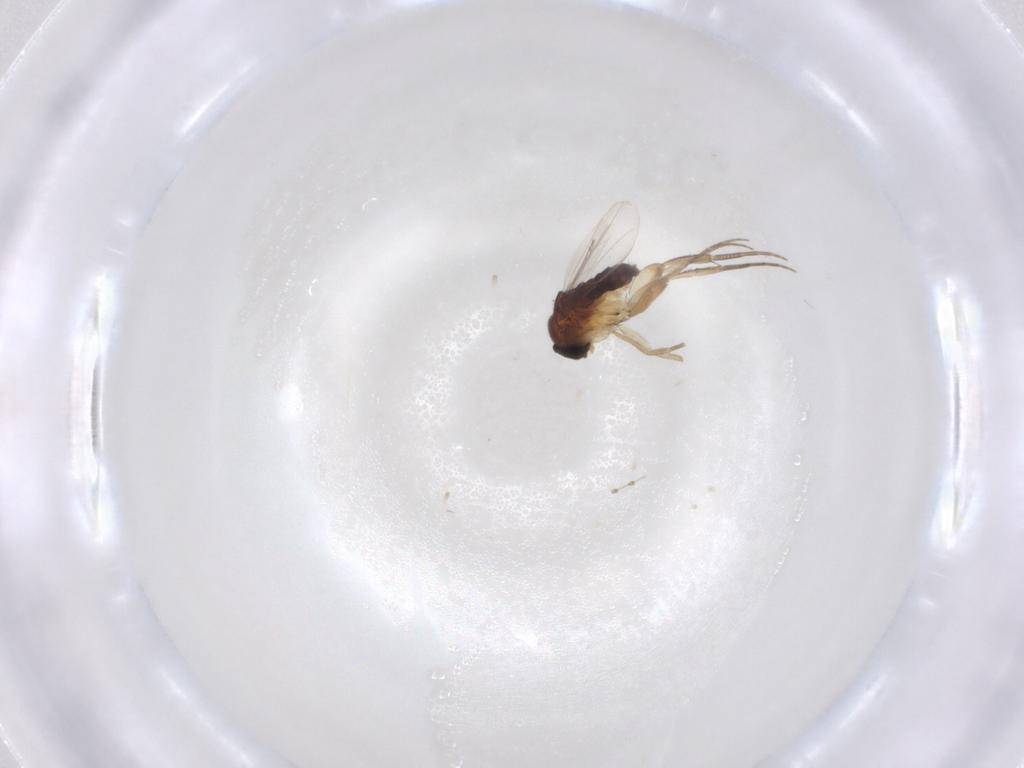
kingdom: Animalia
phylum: Arthropoda
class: Insecta
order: Diptera
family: Phoridae
